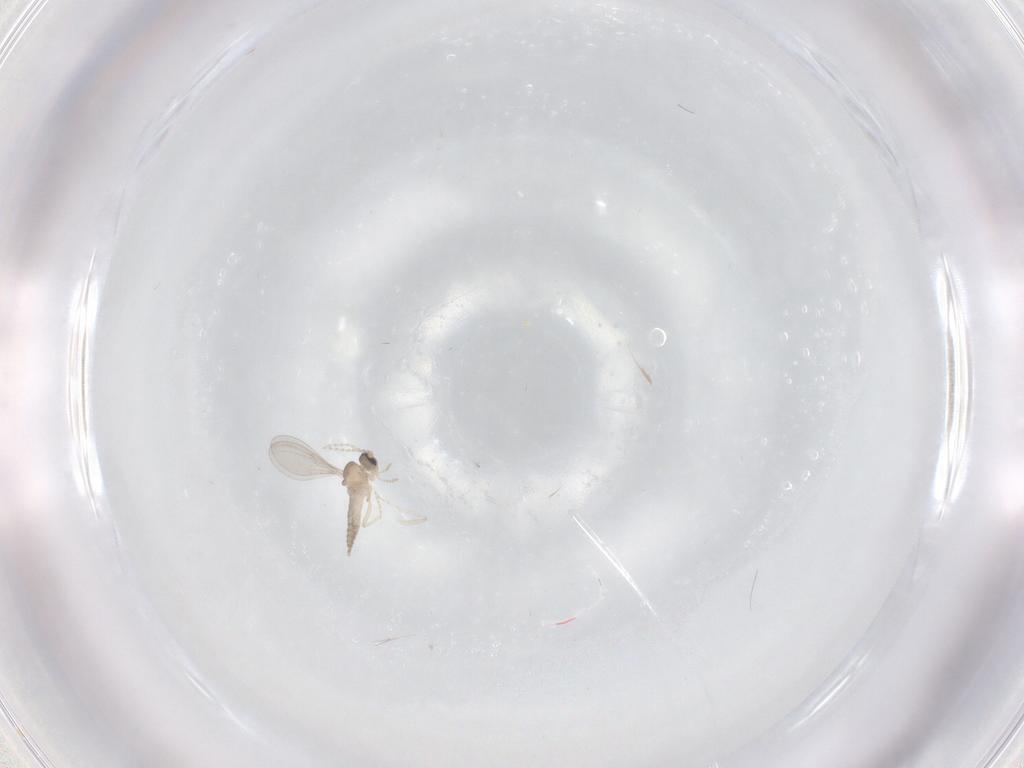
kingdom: Animalia
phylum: Arthropoda
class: Insecta
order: Diptera
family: Cecidomyiidae
